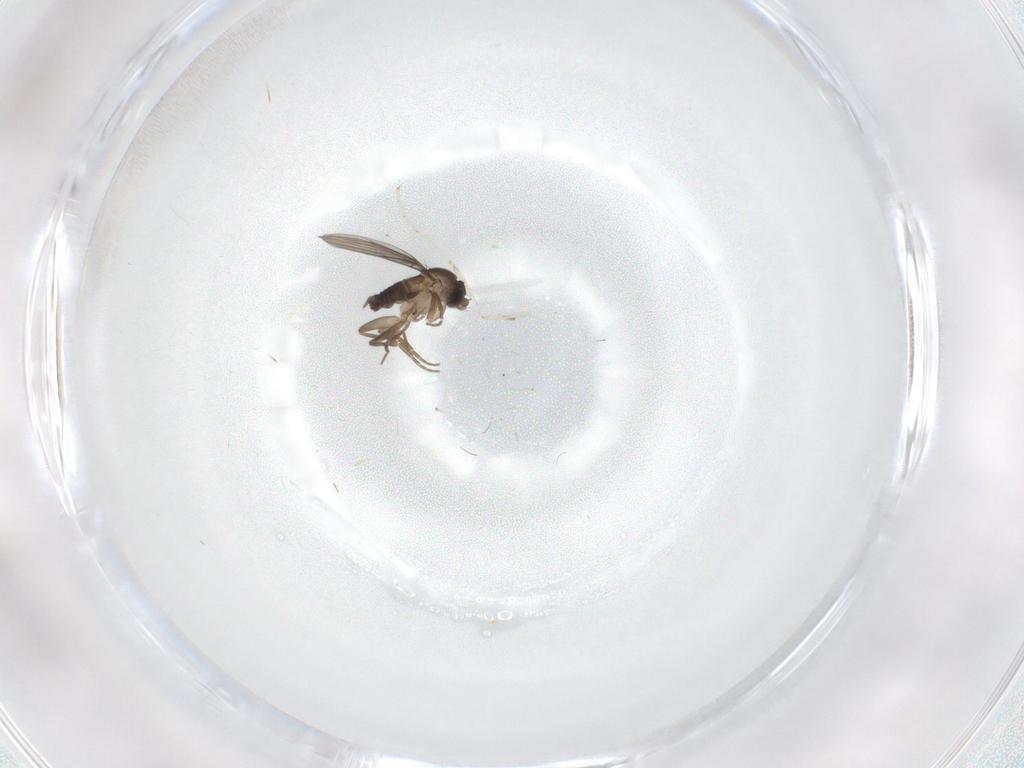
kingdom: Animalia
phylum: Arthropoda
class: Insecta
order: Diptera
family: Phoridae
